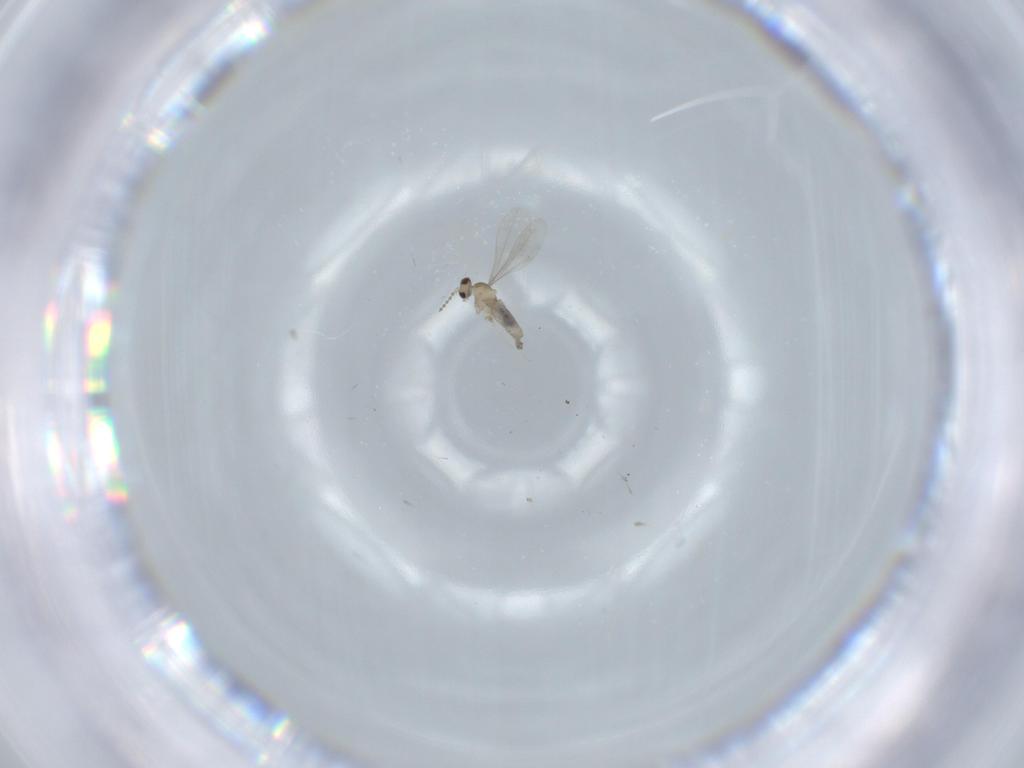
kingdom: Animalia
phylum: Arthropoda
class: Insecta
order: Diptera
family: Cecidomyiidae
